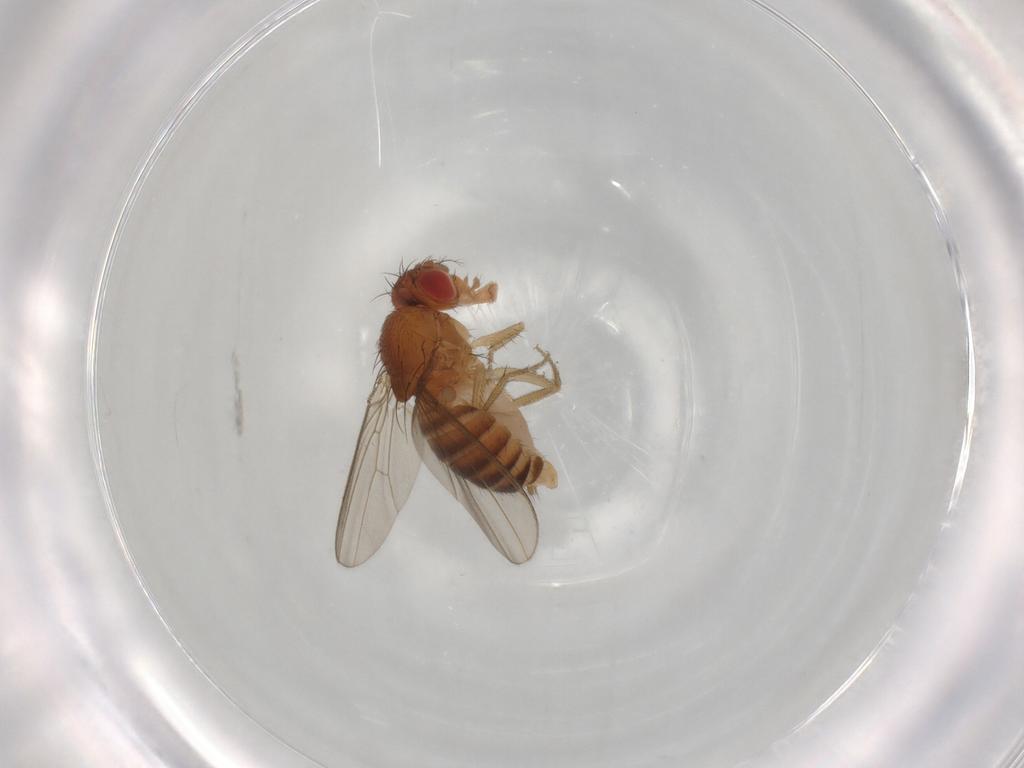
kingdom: Animalia
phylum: Arthropoda
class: Insecta
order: Diptera
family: Drosophilidae
